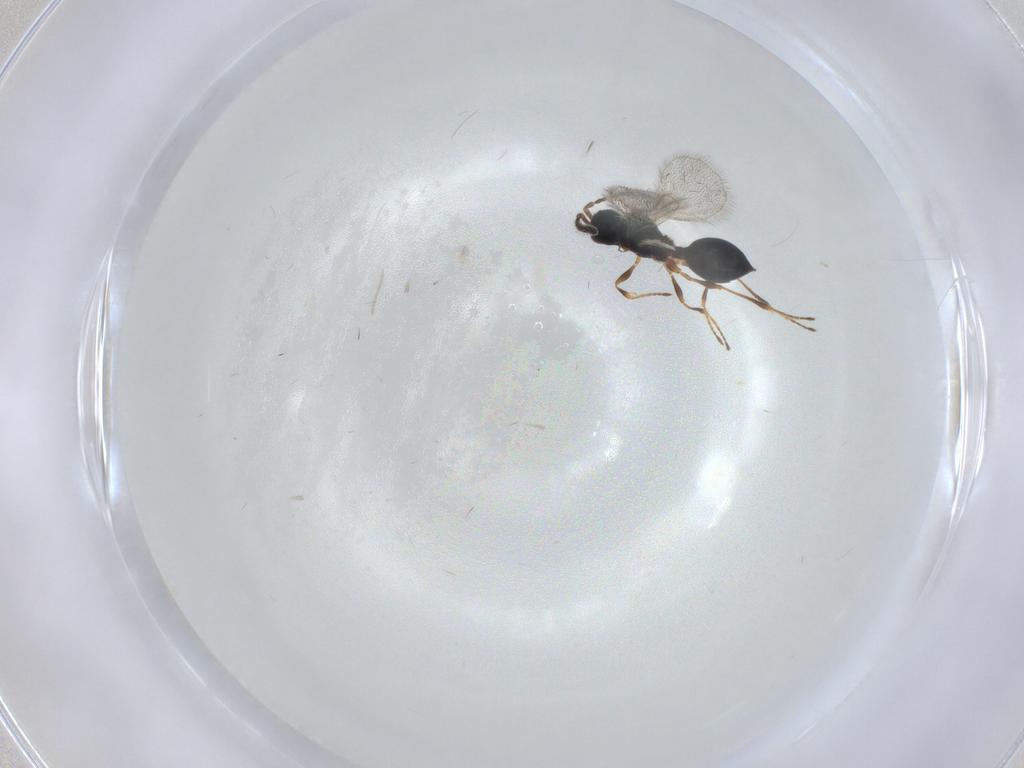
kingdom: Animalia
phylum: Arthropoda
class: Insecta
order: Hymenoptera
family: Diapriidae
